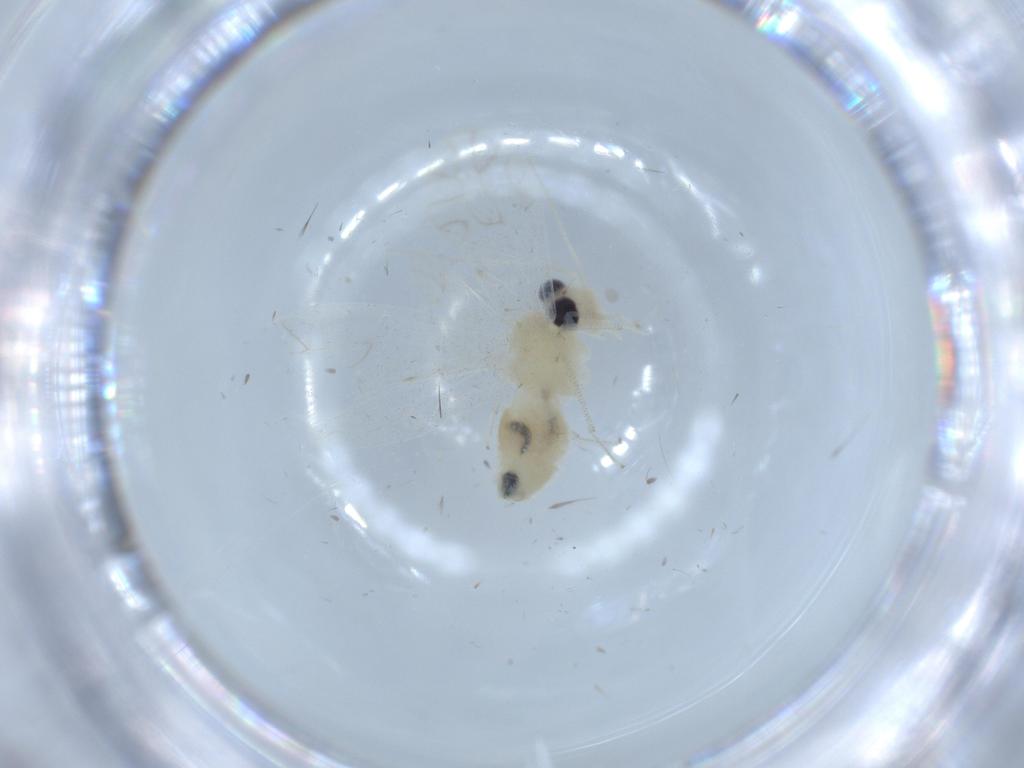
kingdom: Animalia
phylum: Arthropoda
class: Insecta
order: Psocodea
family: Caeciliusidae
